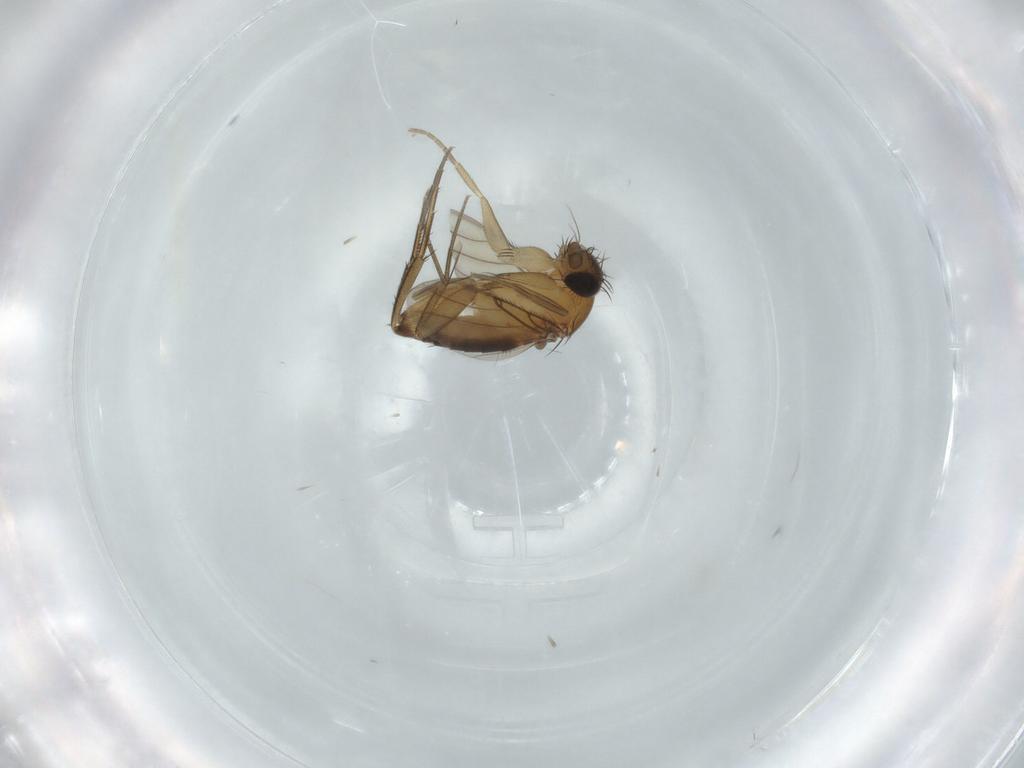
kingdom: Animalia
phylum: Arthropoda
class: Insecta
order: Diptera
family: Phoridae
